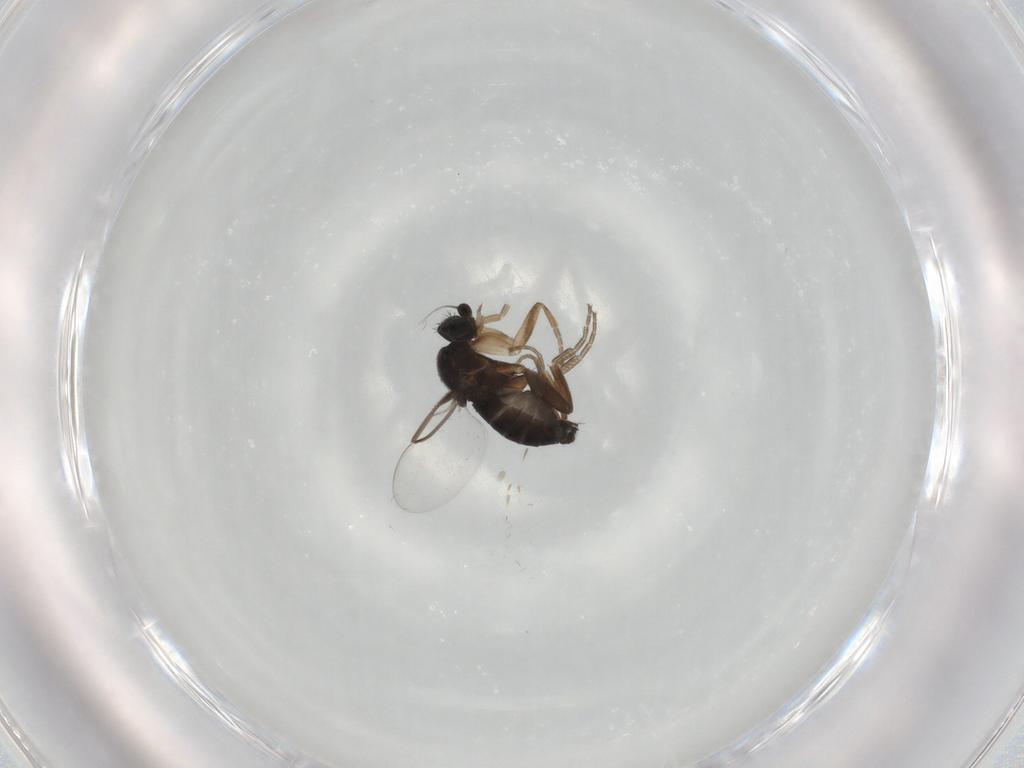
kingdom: Animalia
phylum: Arthropoda
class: Insecta
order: Diptera
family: Phoridae
